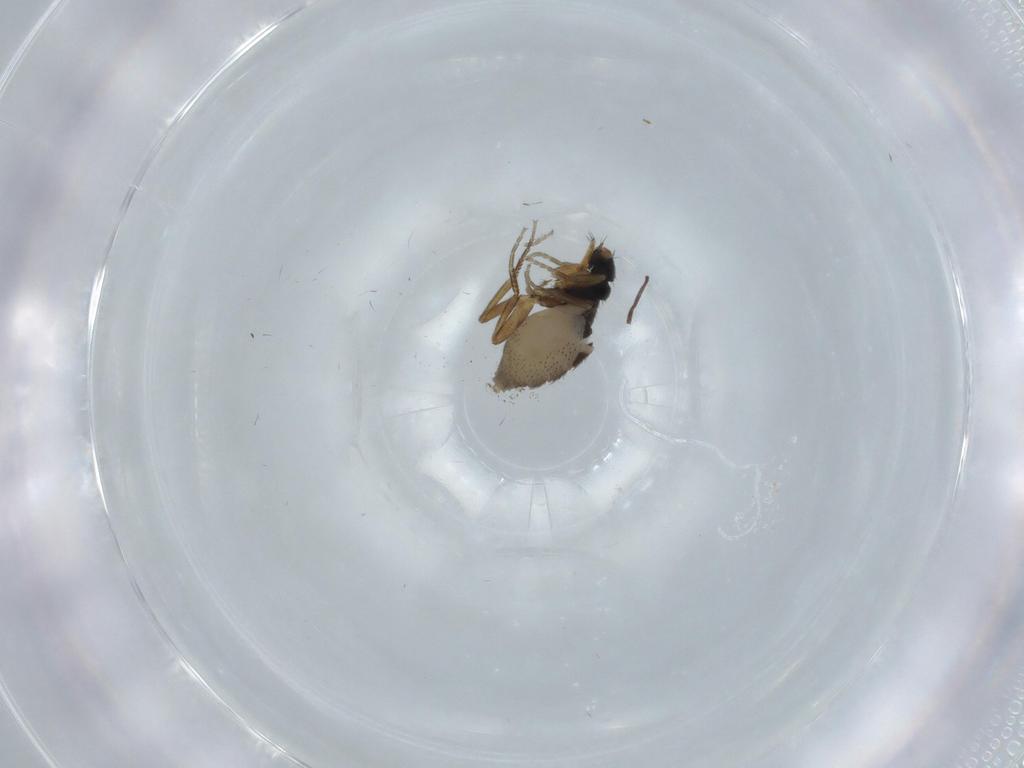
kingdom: Animalia
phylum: Arthropoda
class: Insecta
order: Diptera
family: Phoridae
